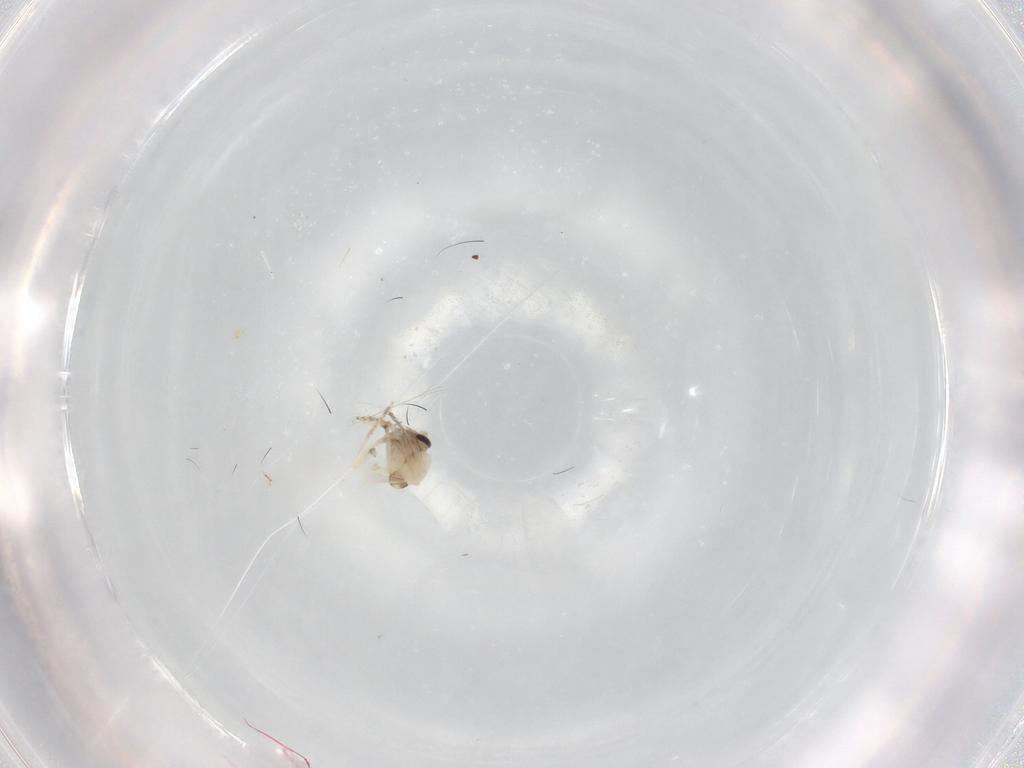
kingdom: Animalia
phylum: Arthropoda
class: Insecta
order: Diptera
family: Ceratopogonidae
